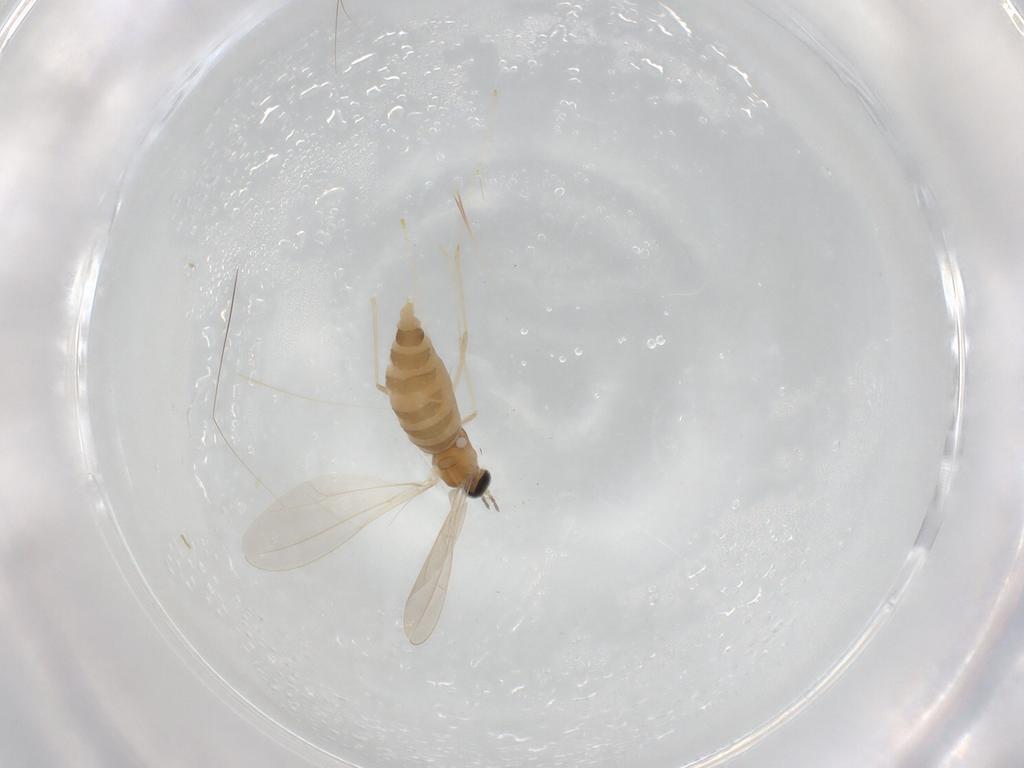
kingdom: Animalia
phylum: Arthropoda
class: Insecta
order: Diptera
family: Cecidomyiidae
